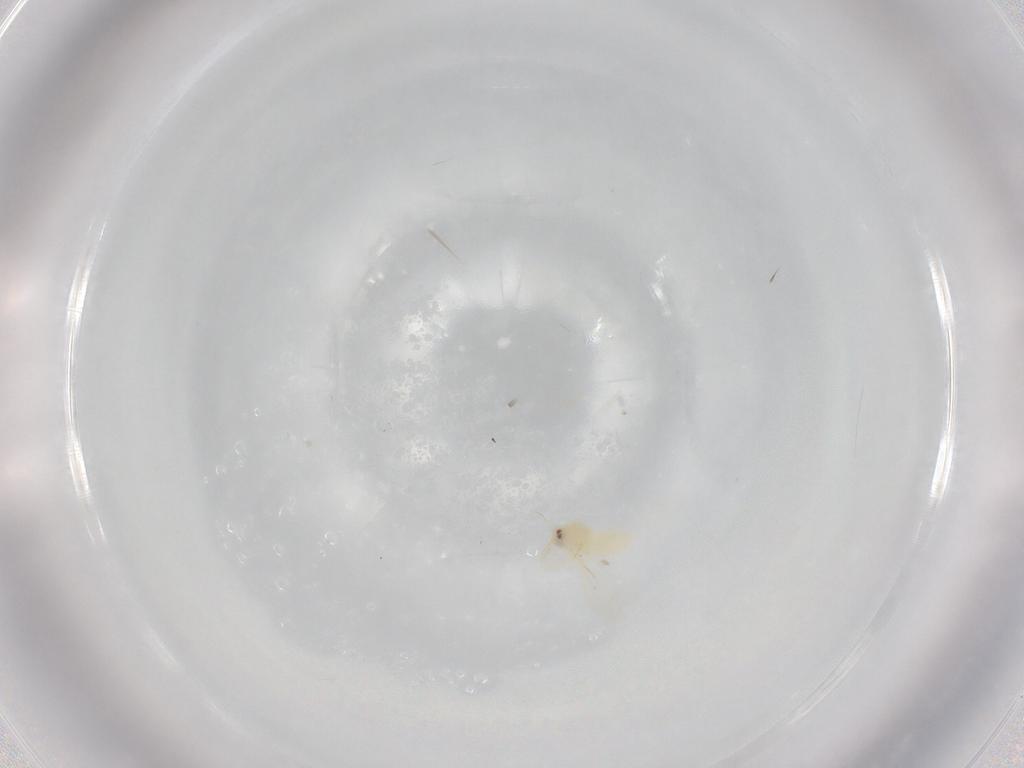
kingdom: Animalia
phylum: Arthropoda
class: Insecta
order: Hemiptera
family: Aleyrodidae
